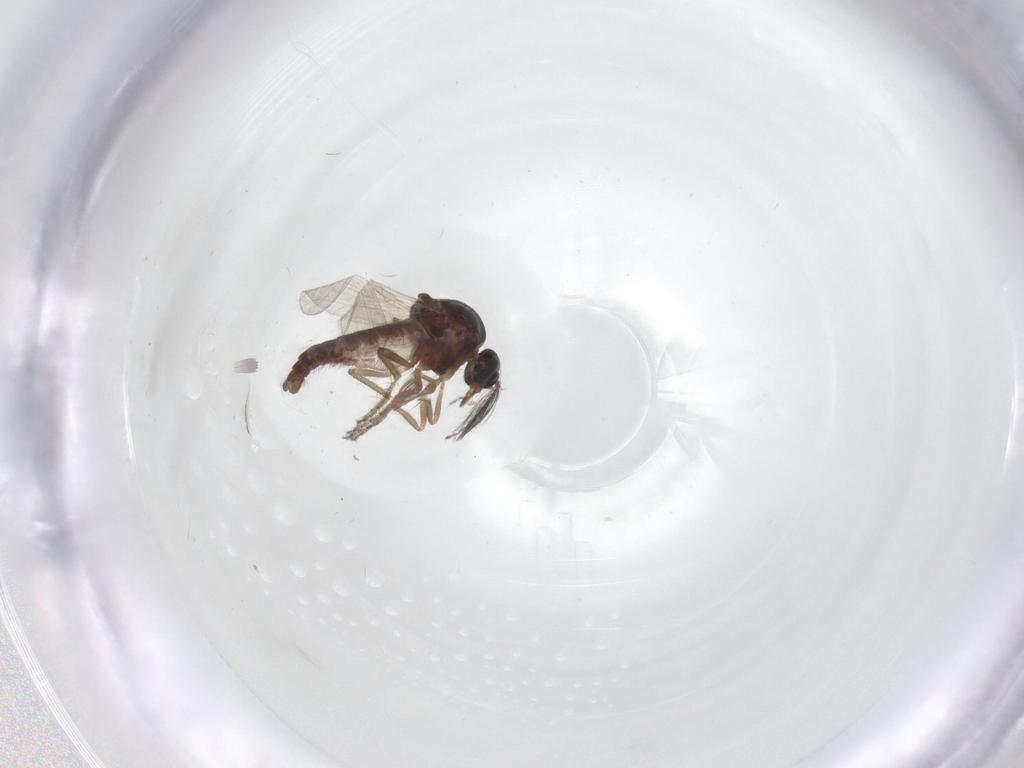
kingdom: Animalia
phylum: Arthropoda
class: Insecta
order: Diptera
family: Ceratopogonidae
